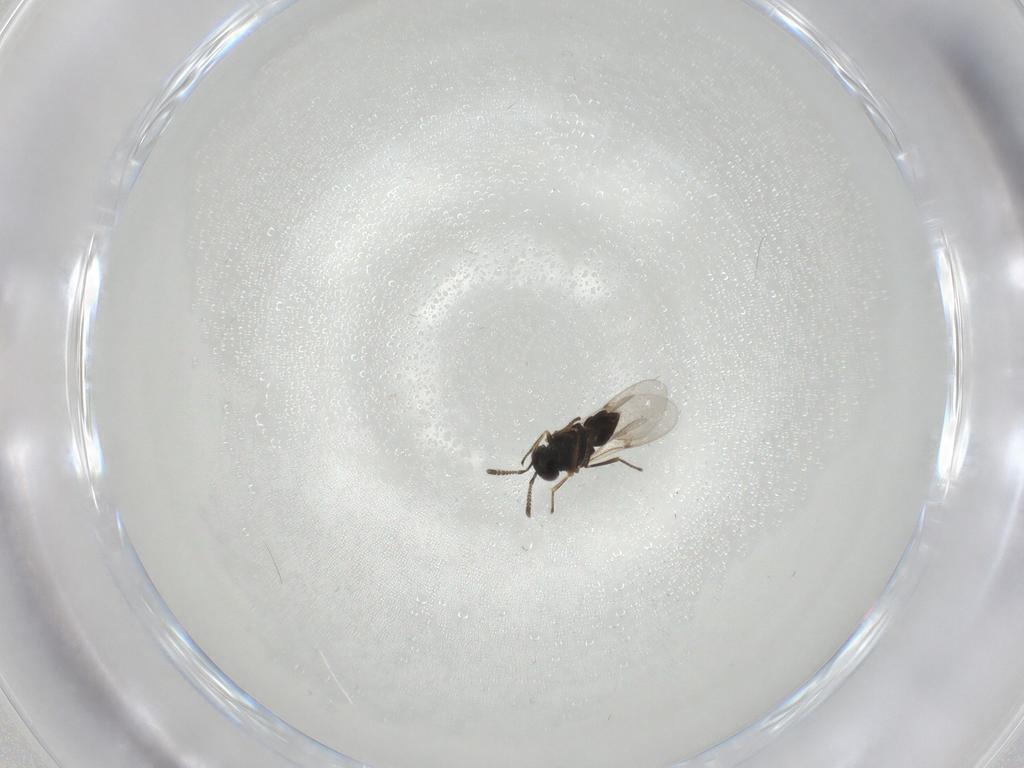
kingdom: Animalia
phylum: Arthropoda
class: Insecta
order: Hymenoptera
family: Encyrtidae
